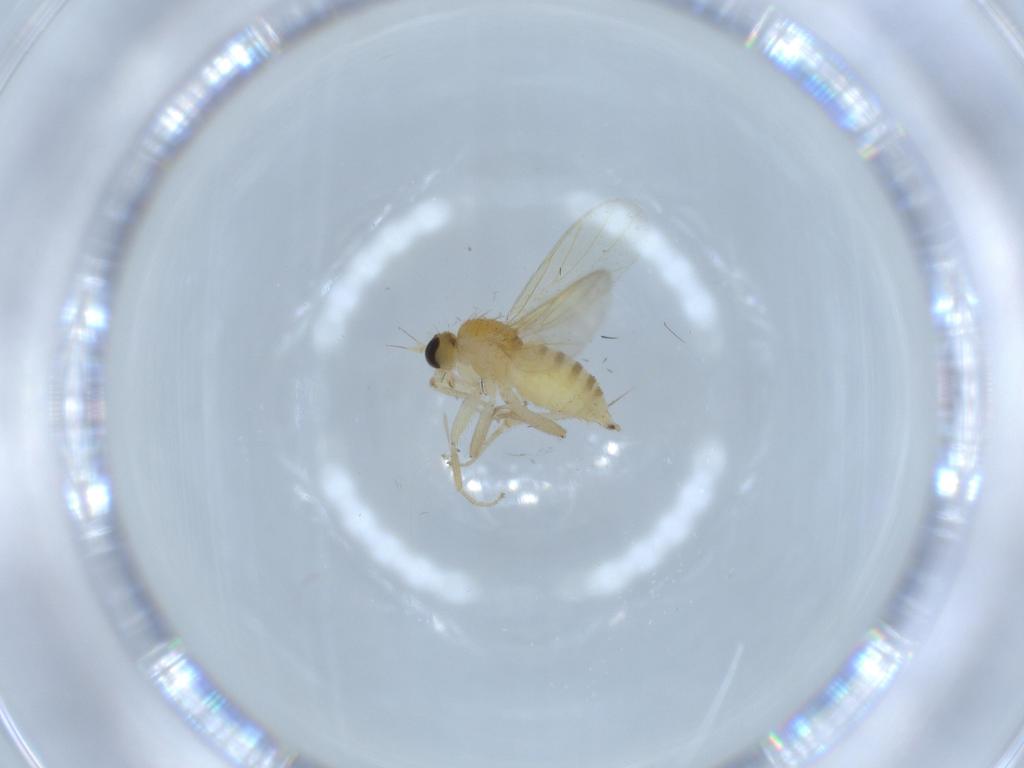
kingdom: Animalia
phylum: Arthropoda
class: Insecta
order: Diptera
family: Hybotidae
